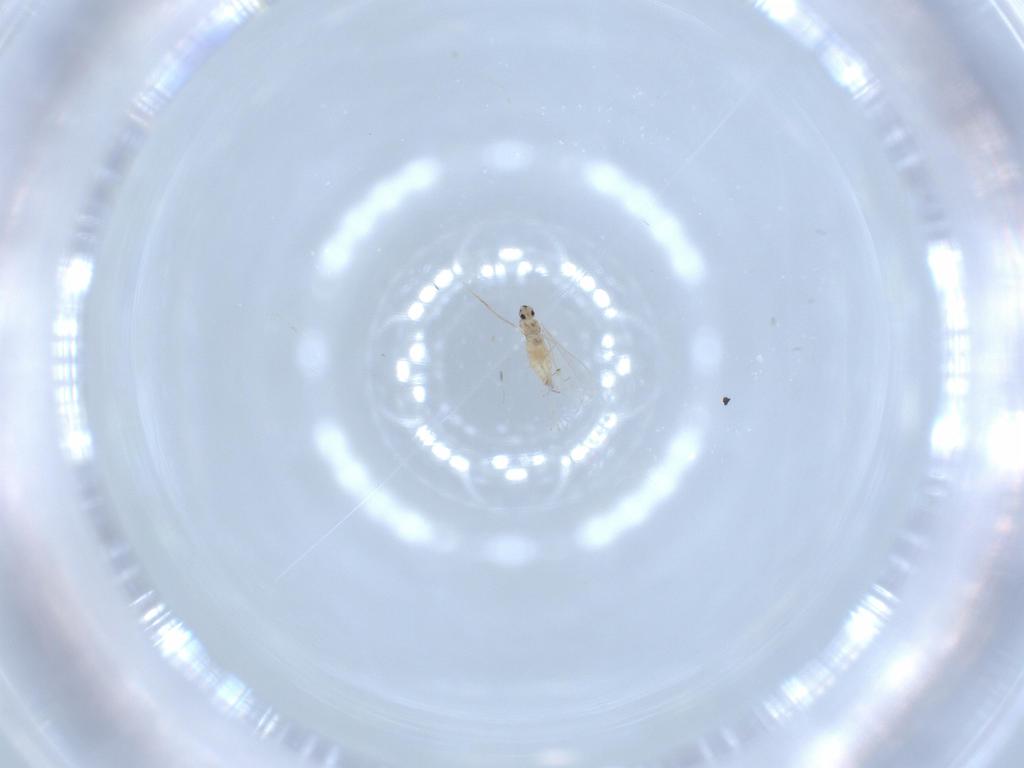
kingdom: Animalia
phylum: Arthropoda
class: Insecta
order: Diptera
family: Cecidomyiidae
